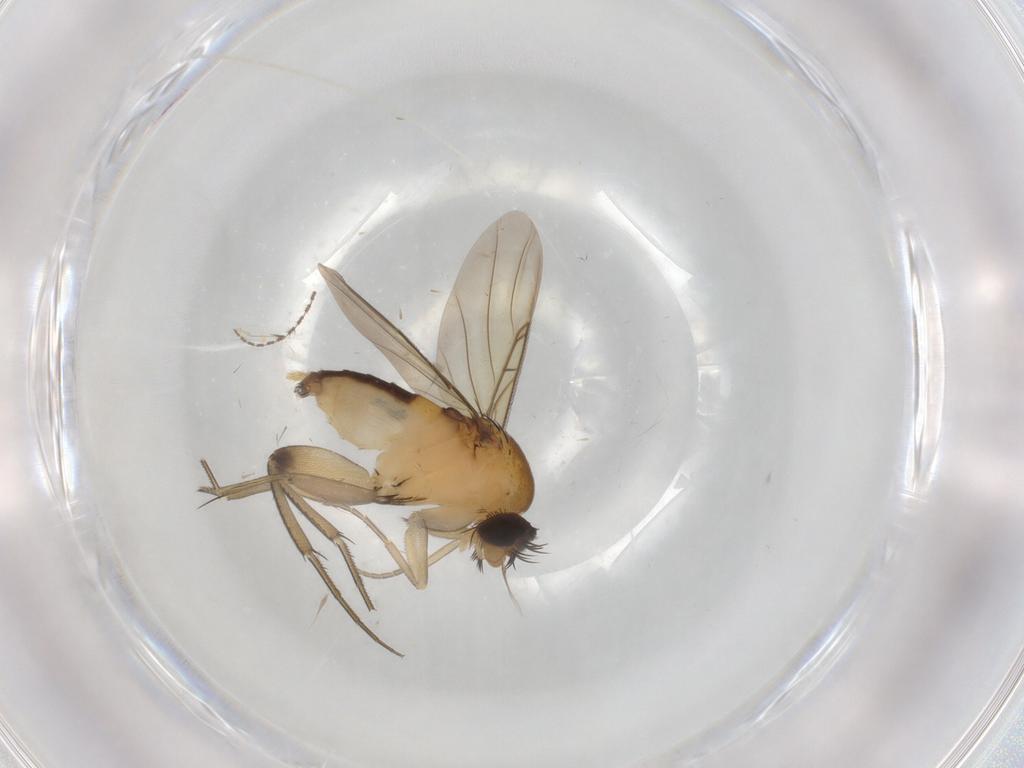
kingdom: Animalia
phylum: Arthropoda
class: Insecta
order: Diptera
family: Phoridae
